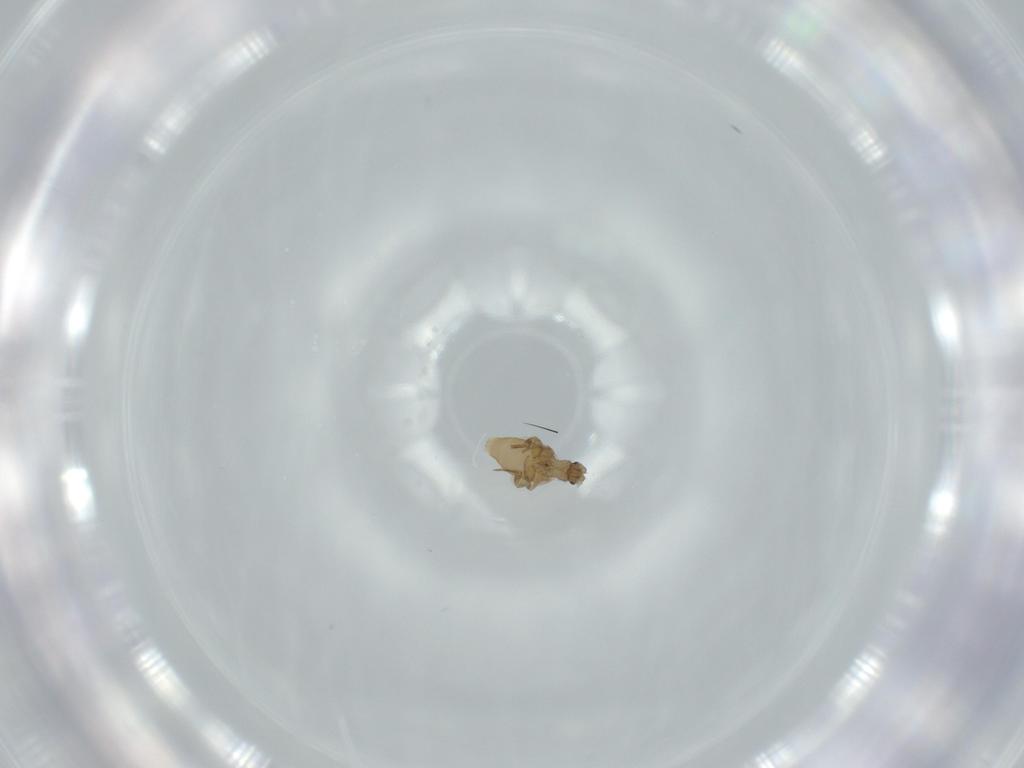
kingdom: Animalia
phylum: Arthropoda
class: Insecta
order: Diptera
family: Phoridae
